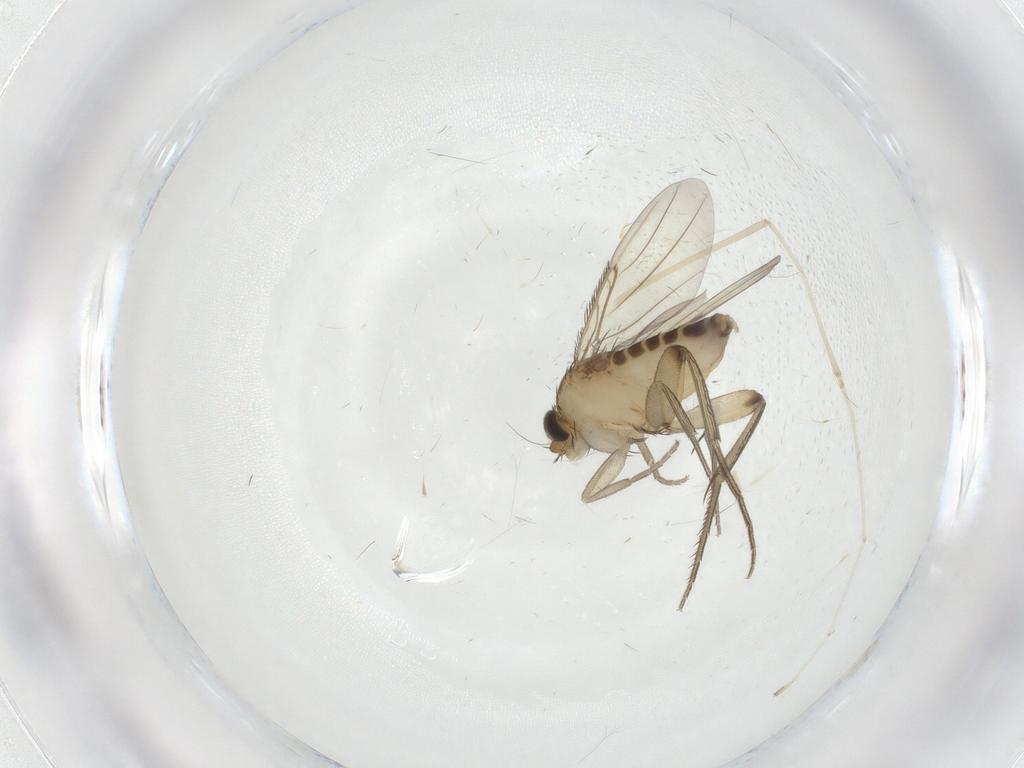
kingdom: Animalia
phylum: Arthropoda
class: Insecta
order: Diptera
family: Phoridae
